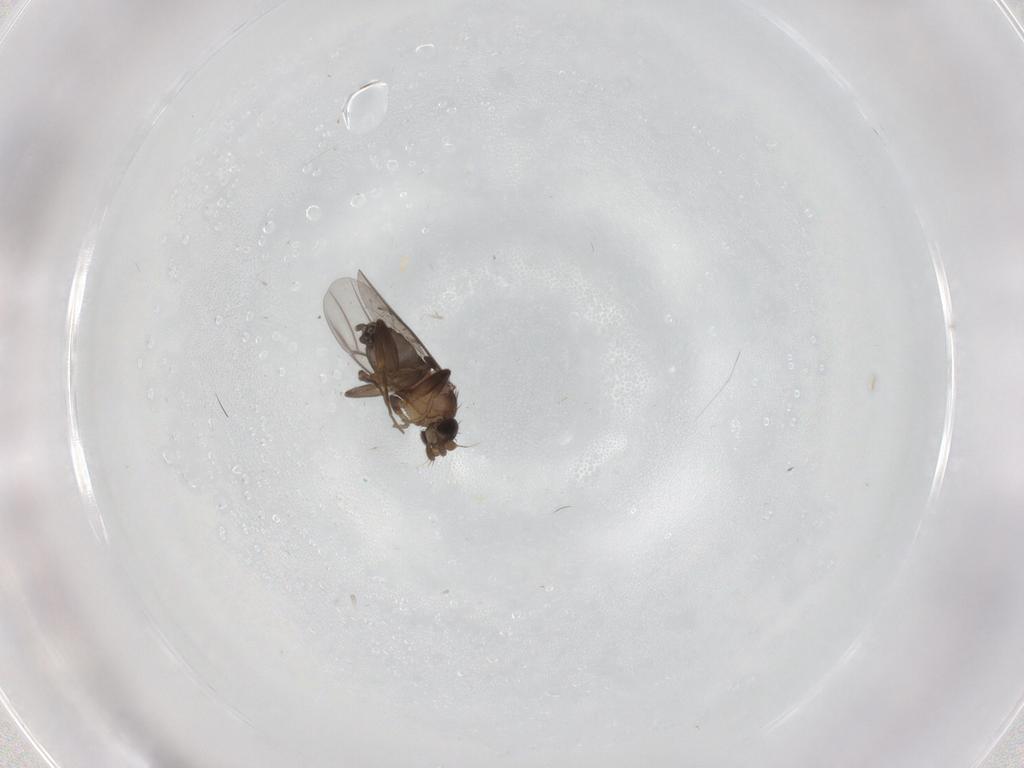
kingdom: Animalia
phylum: Arthropoda
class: Insecta
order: Diptera
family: Phoridae
